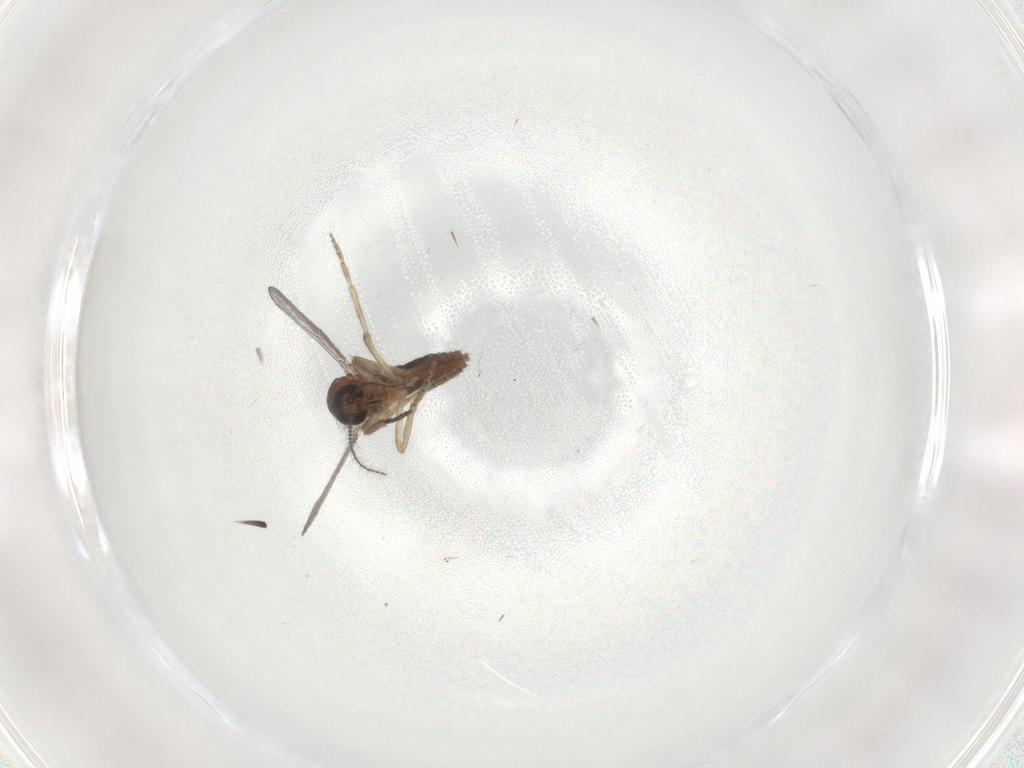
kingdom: Animalia
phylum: Arthropoda
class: Insecta
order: Diptera
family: Ceratopogonidae
